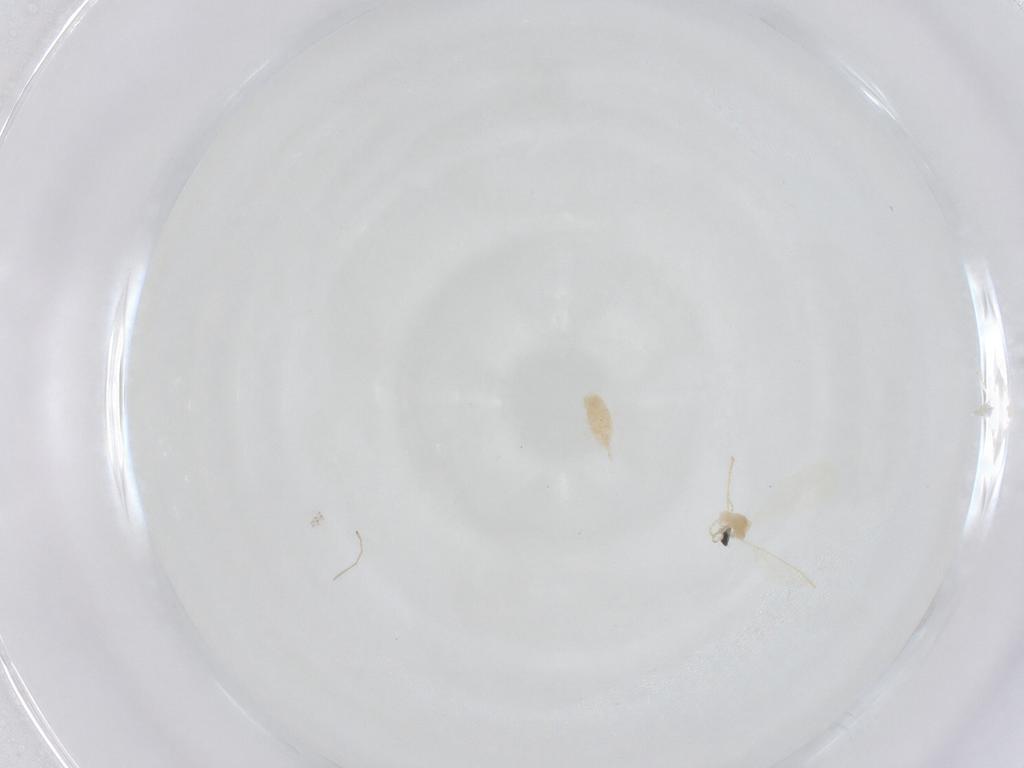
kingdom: Animalia
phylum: Arthropoda
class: Insecta
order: Diptera
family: Cecidomyiidae
